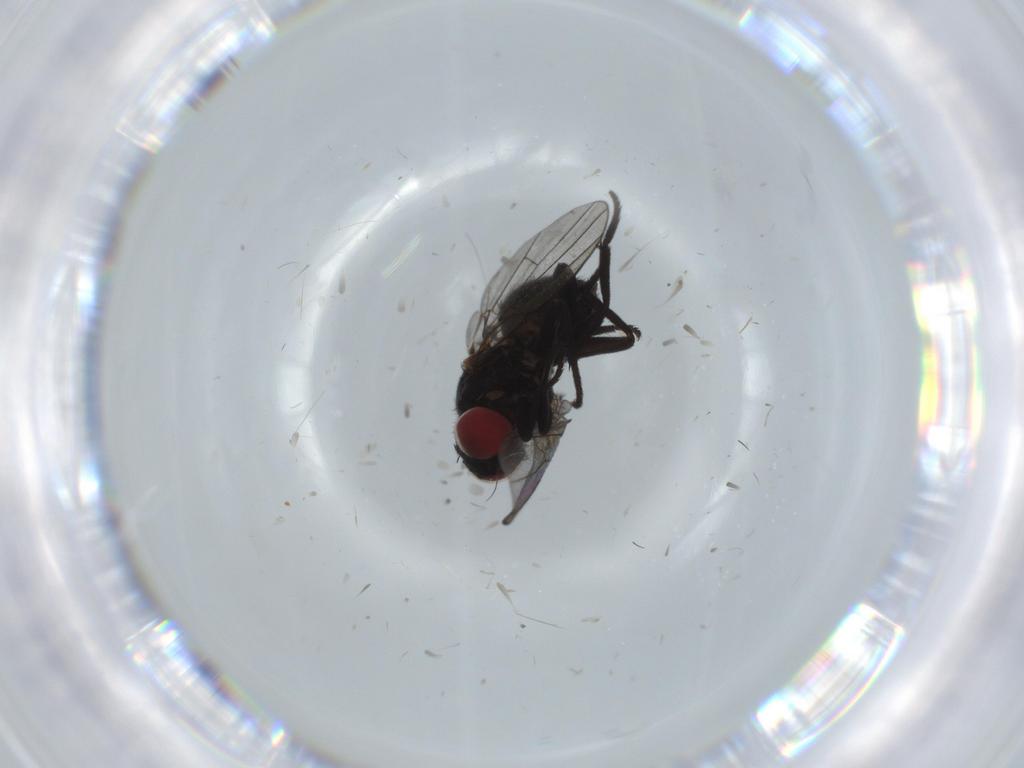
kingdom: Animalia
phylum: Arthropoda
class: Insecta
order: Diptera
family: Agromyzidae
